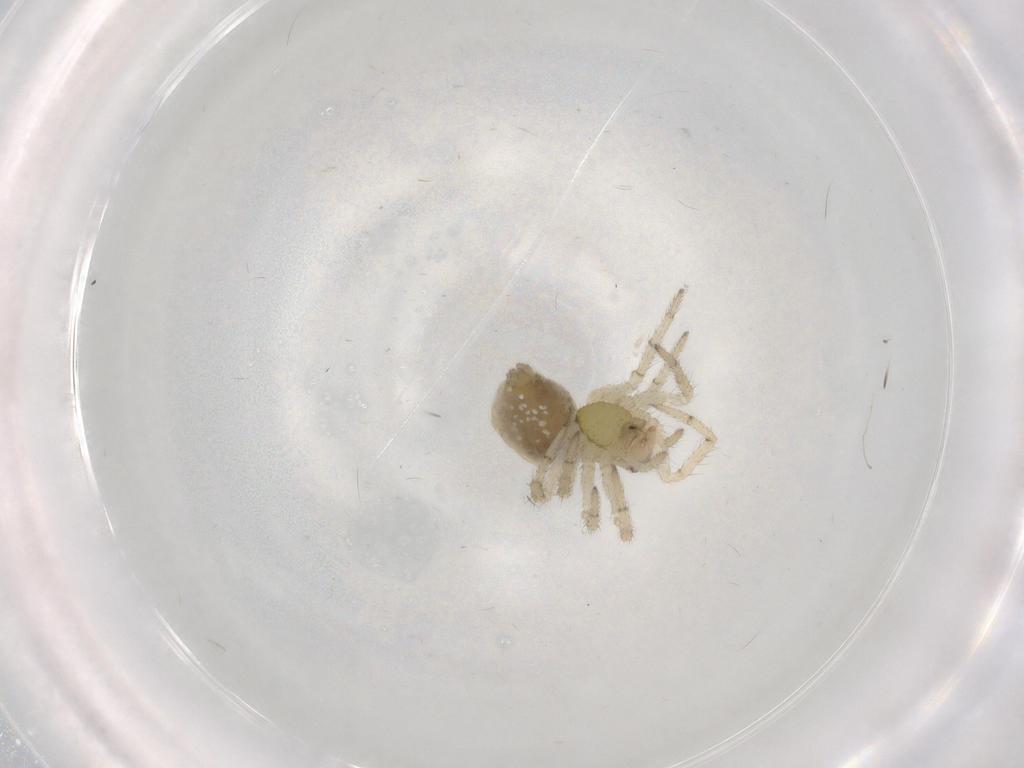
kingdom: Animalia
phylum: Arthropoda
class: Arachnida
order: Araneae
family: Theridiidae
